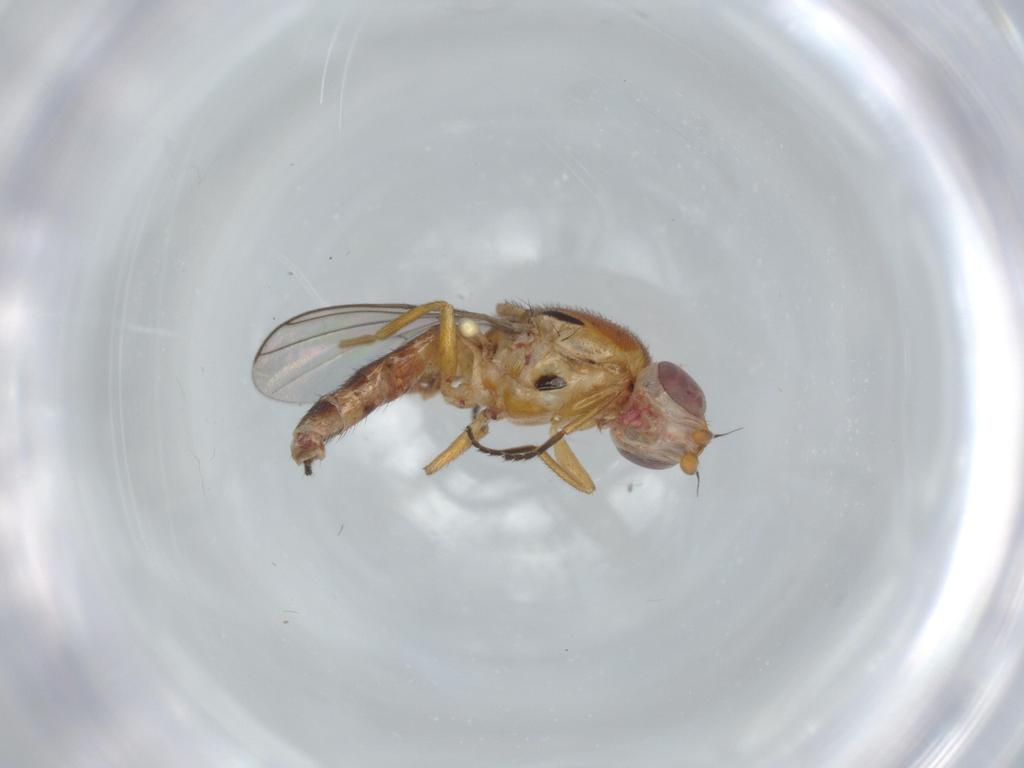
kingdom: Animalia
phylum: Arthropoda
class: Insecta
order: Diptera
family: Chloropidae
